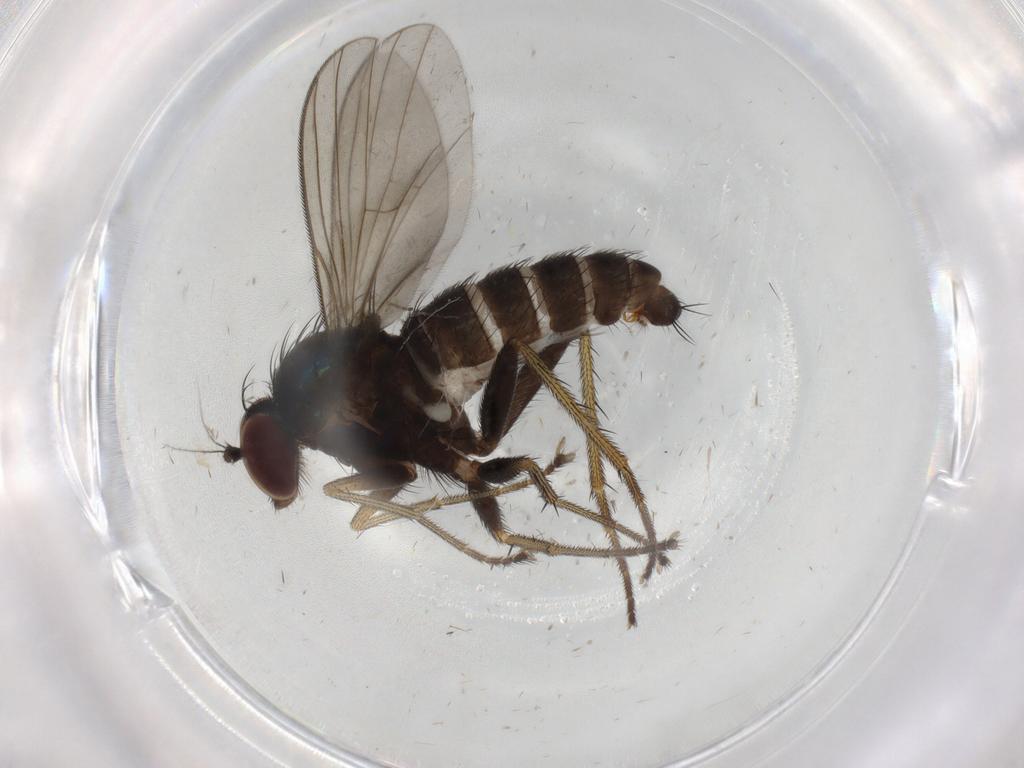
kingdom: Animalia
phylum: Arthropoda
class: Insecta
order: Diptera
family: Dolichopodidae
